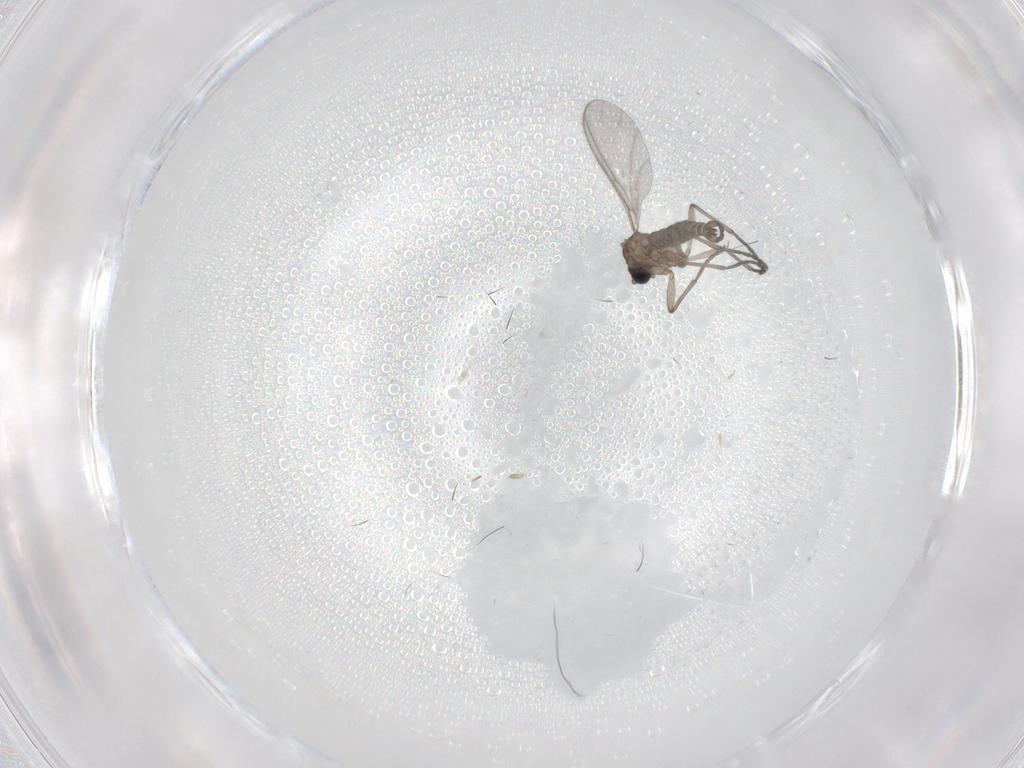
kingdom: Animalia
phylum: Arthropoda
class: Insecta
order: Diptera
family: Sciaridae
